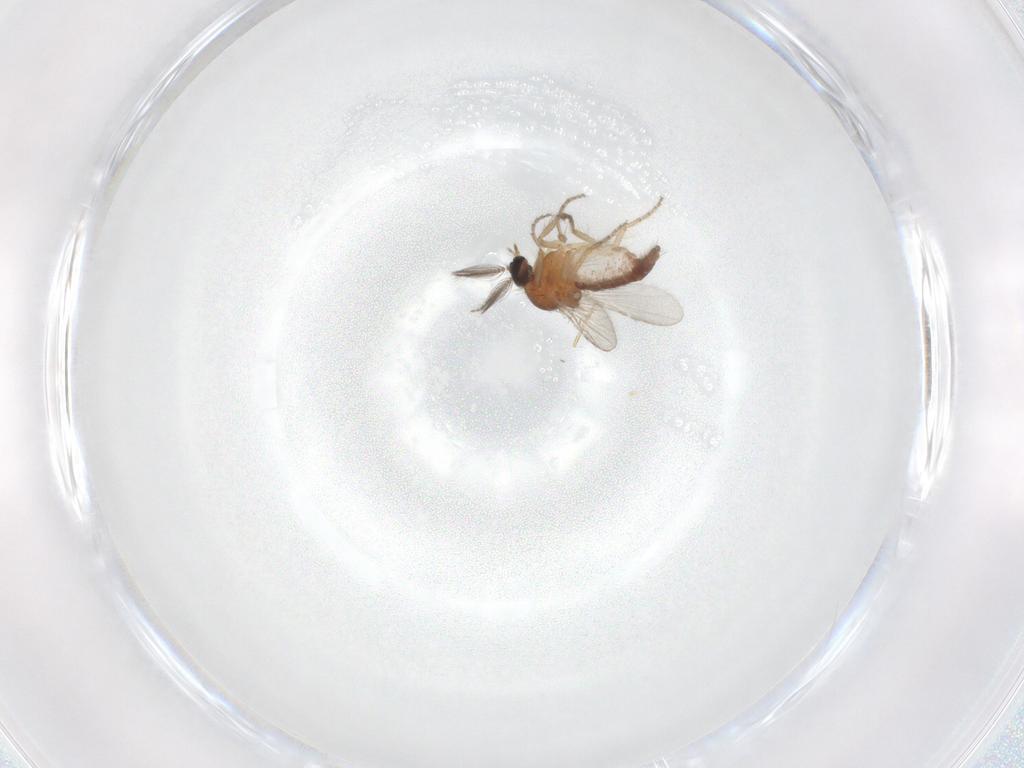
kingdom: Animalia
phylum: Arthropoda
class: Insecta
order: Diptera
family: Ceratopogonidae
